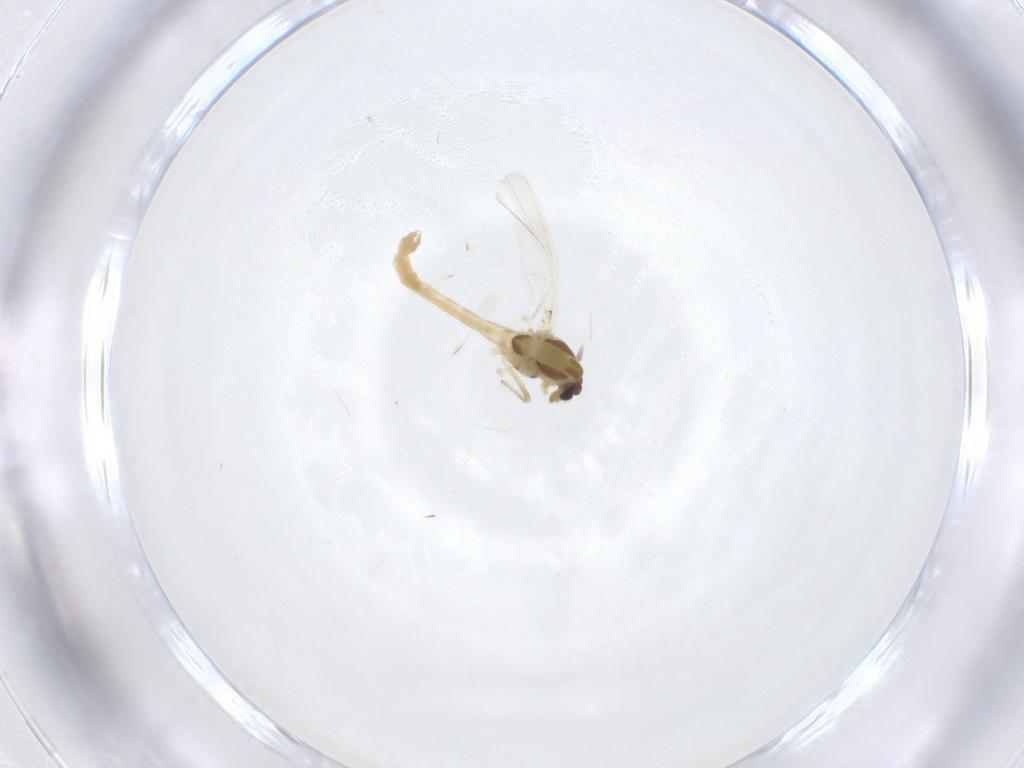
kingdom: Animalia
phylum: Arthropoda
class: Insecta
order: Diptera
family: Chironomidae
